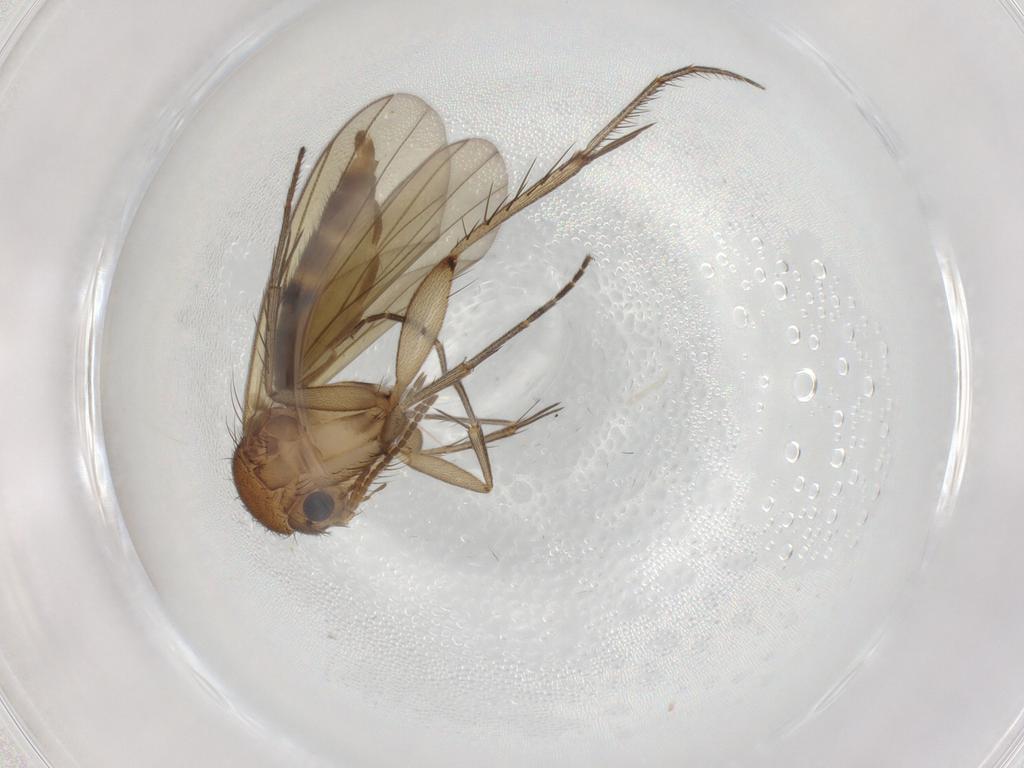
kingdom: Animalia
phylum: Arthropoda
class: Insecta
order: Diptera
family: Mycetophilidae
